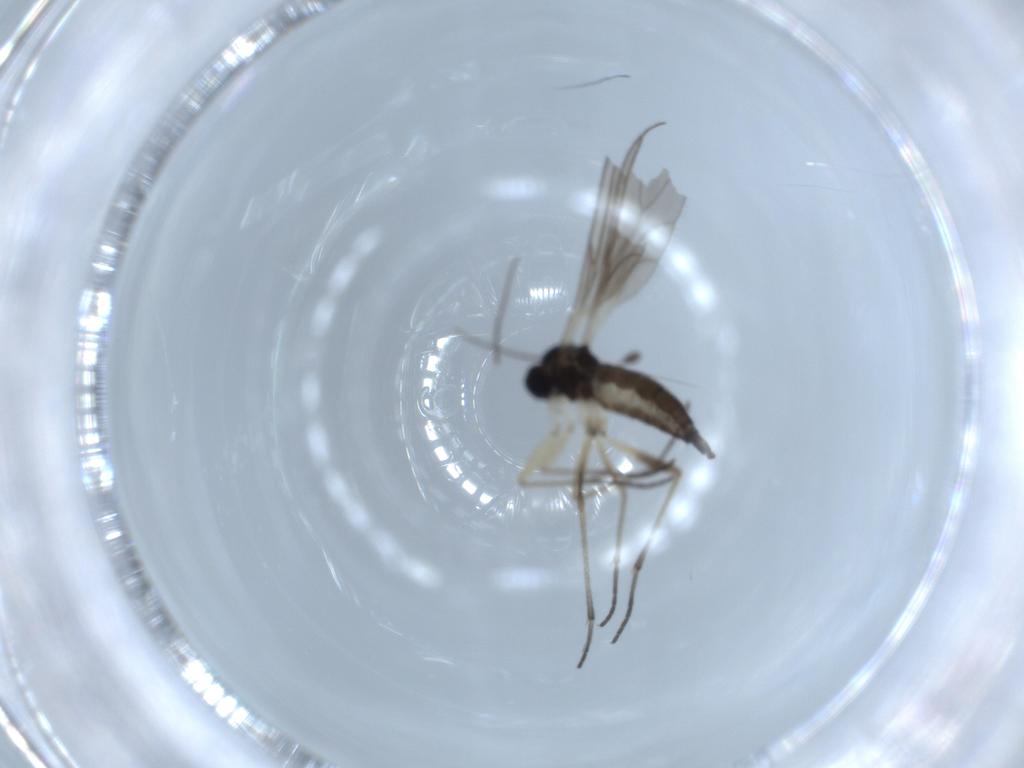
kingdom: Animalia
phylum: Arthropoda
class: Insecta
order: Diptera
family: Sciaridae
